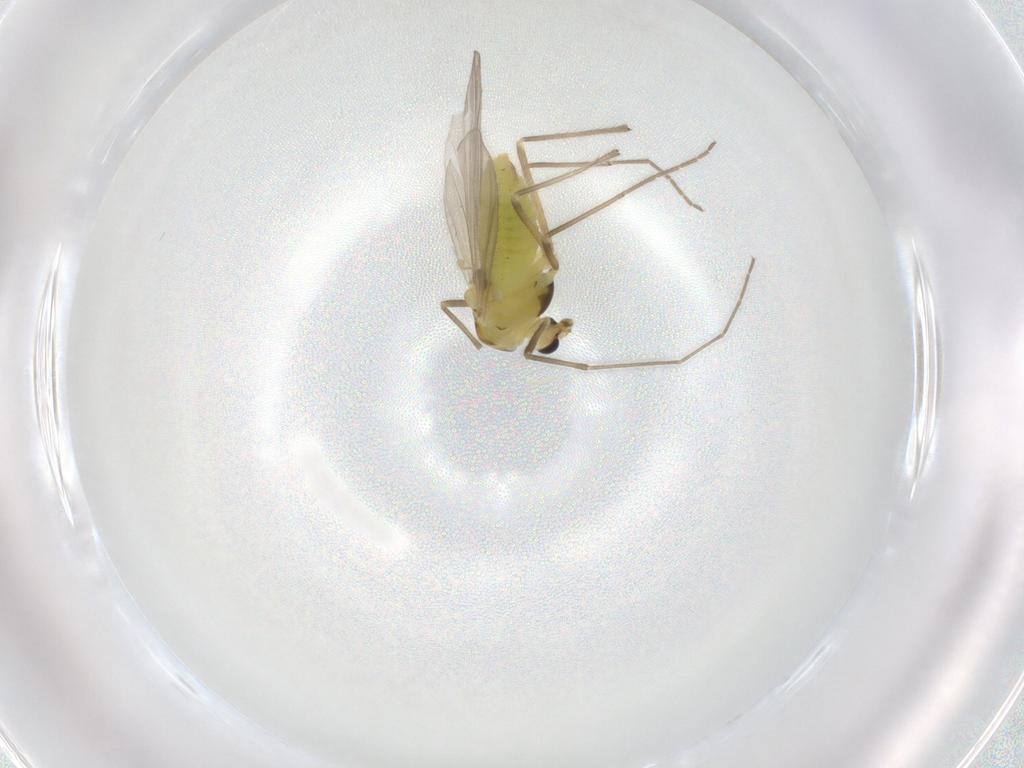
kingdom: Animalia
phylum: Arthropoda
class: Insecta
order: Diptera
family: Chironomidae
